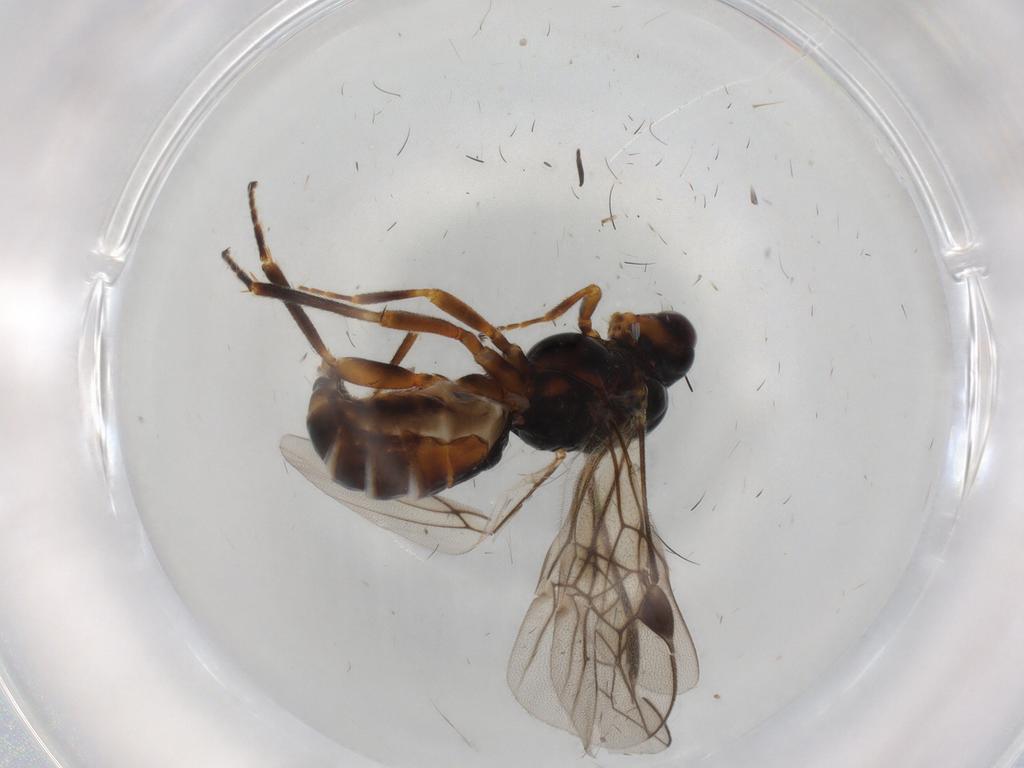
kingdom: Animalia
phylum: Arthropoda
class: Insecta
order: Hymenoptera
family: Braconidae
